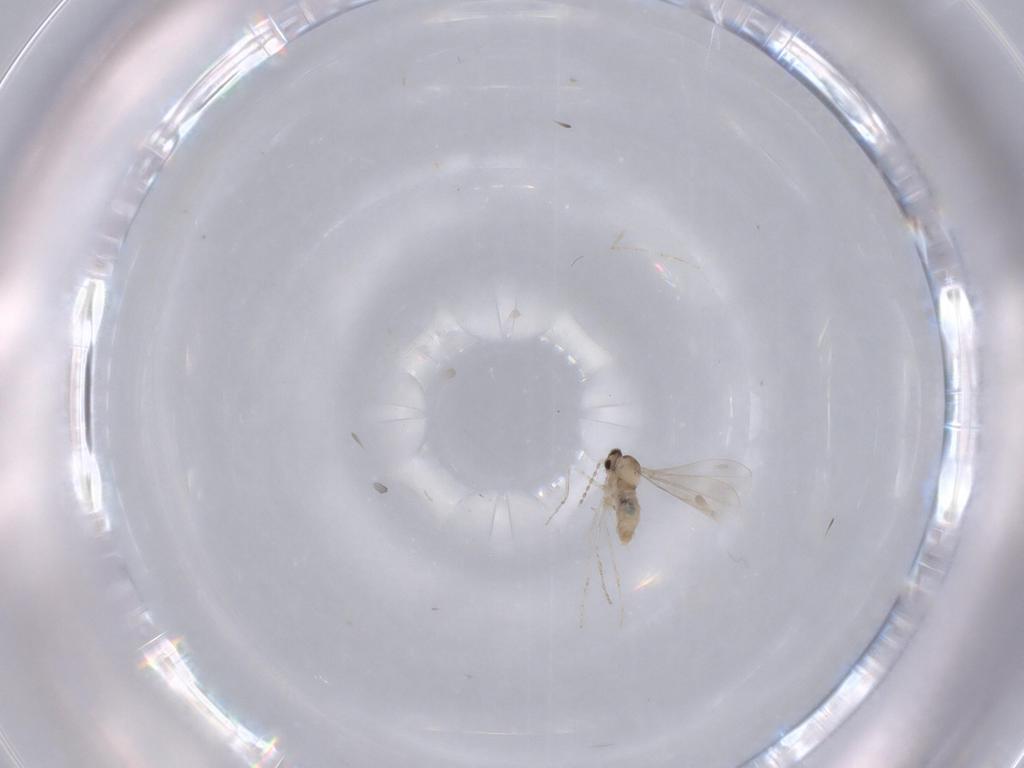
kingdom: Animalia
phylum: Arthropoda
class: Insecta
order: Diptera
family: Cecidomyiidae
